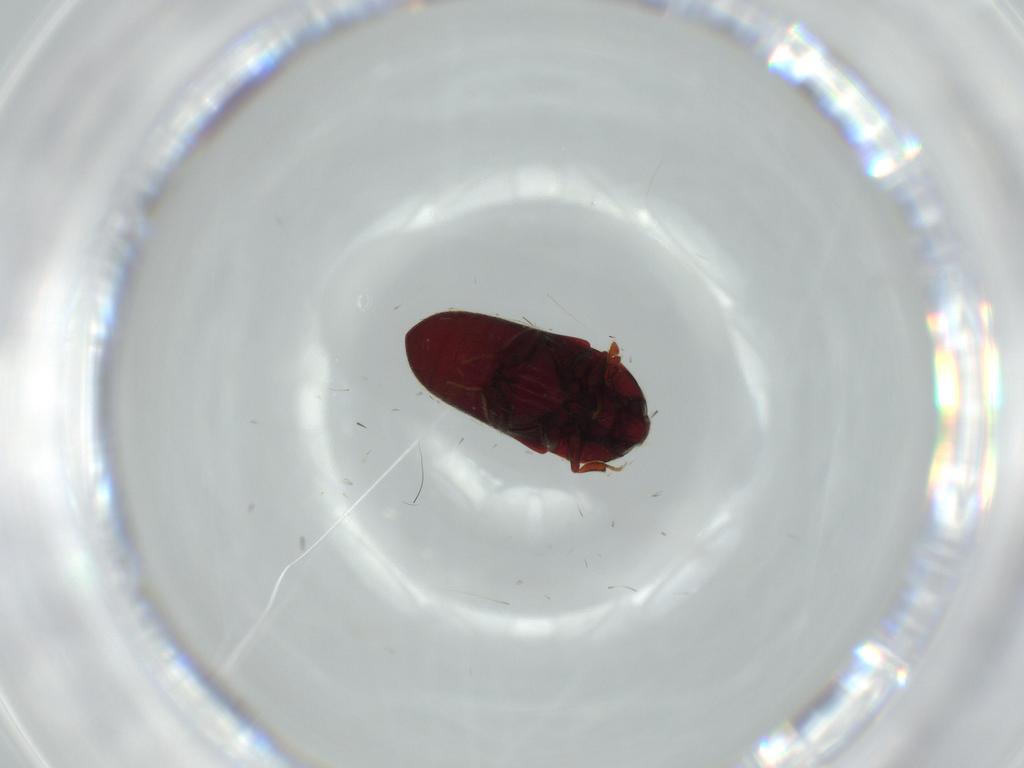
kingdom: Animalia
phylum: Arthropoda
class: Insecta
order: Coleoptera
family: Throscidae
